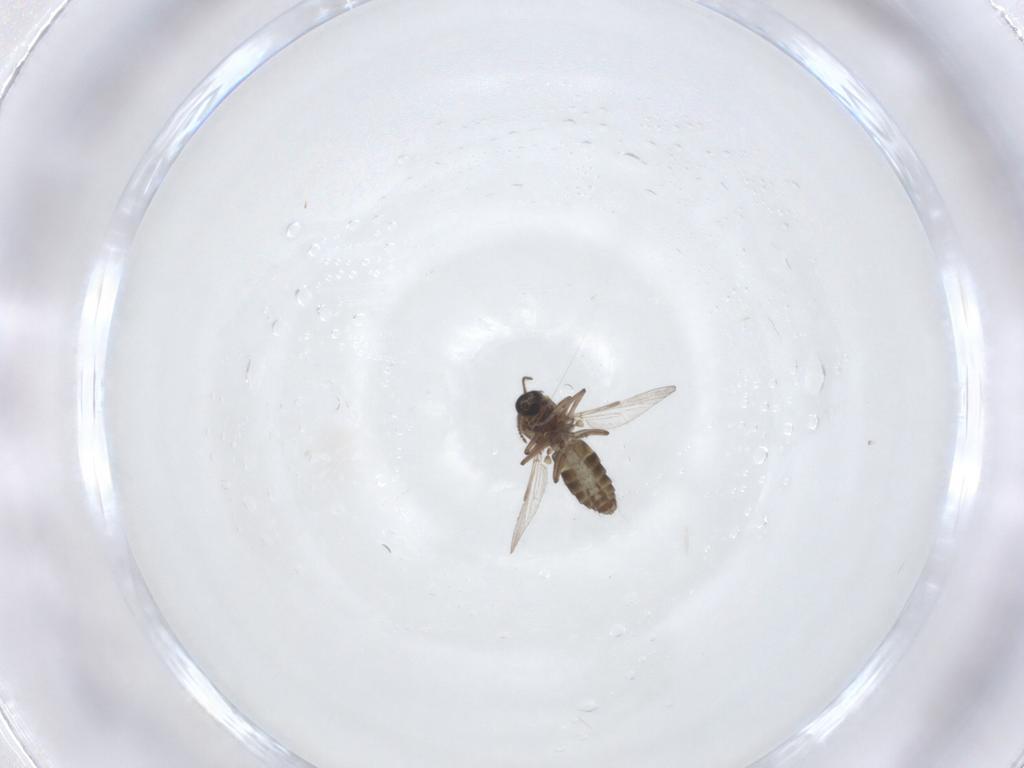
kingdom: Animalia
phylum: Arthropoda
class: Insecta
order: Diptera
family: Ceratopogonidae
